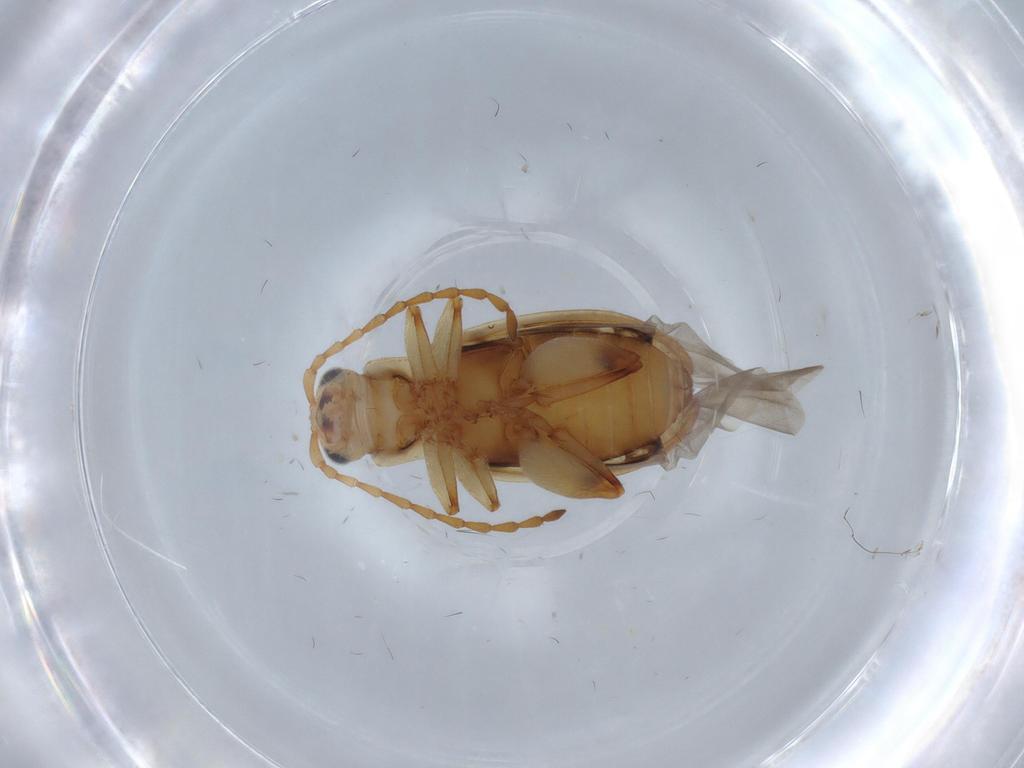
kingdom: Animalia
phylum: Arthropoda
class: Insecta
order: Coleoptera
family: Chrysomelidae
